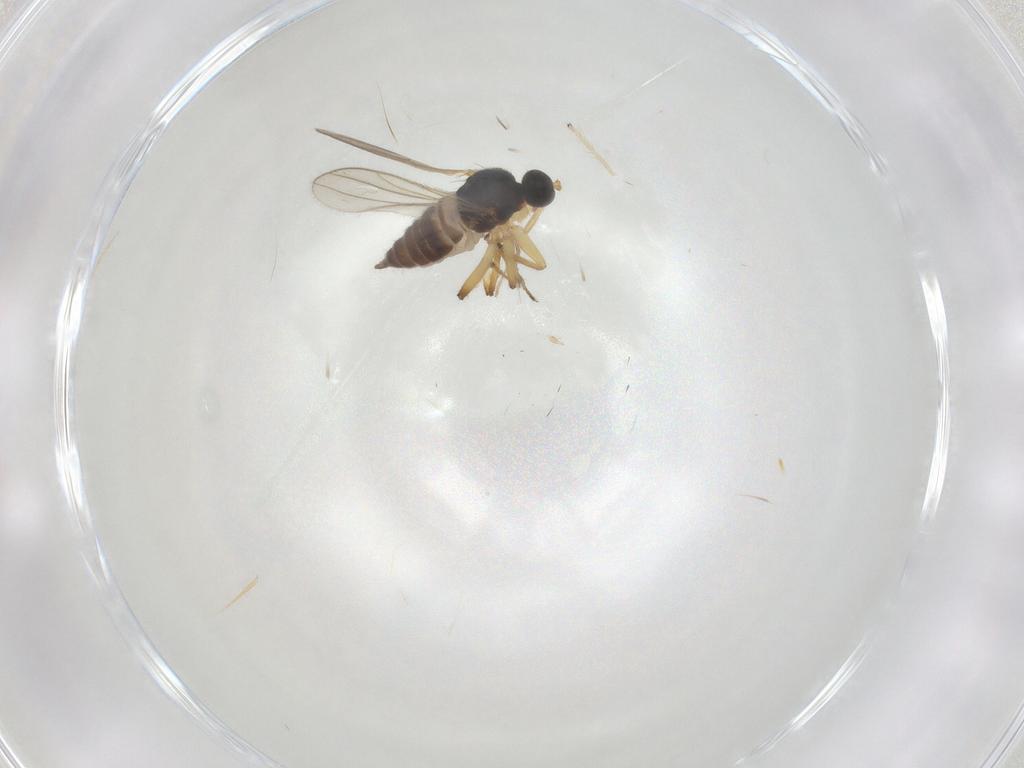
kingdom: Animalia
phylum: Arthropoda
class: Insecta
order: Diptera
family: Hybotidae
